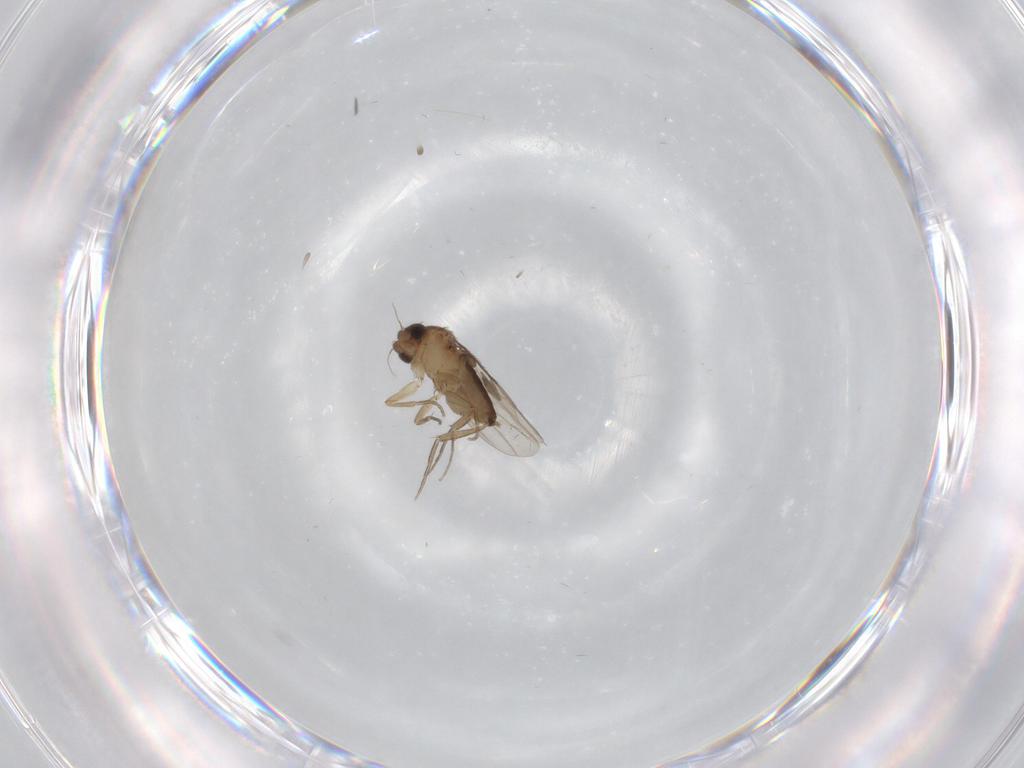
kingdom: Animalia
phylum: Arthropoda
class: Insecta
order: Diptera
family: Phoridae
